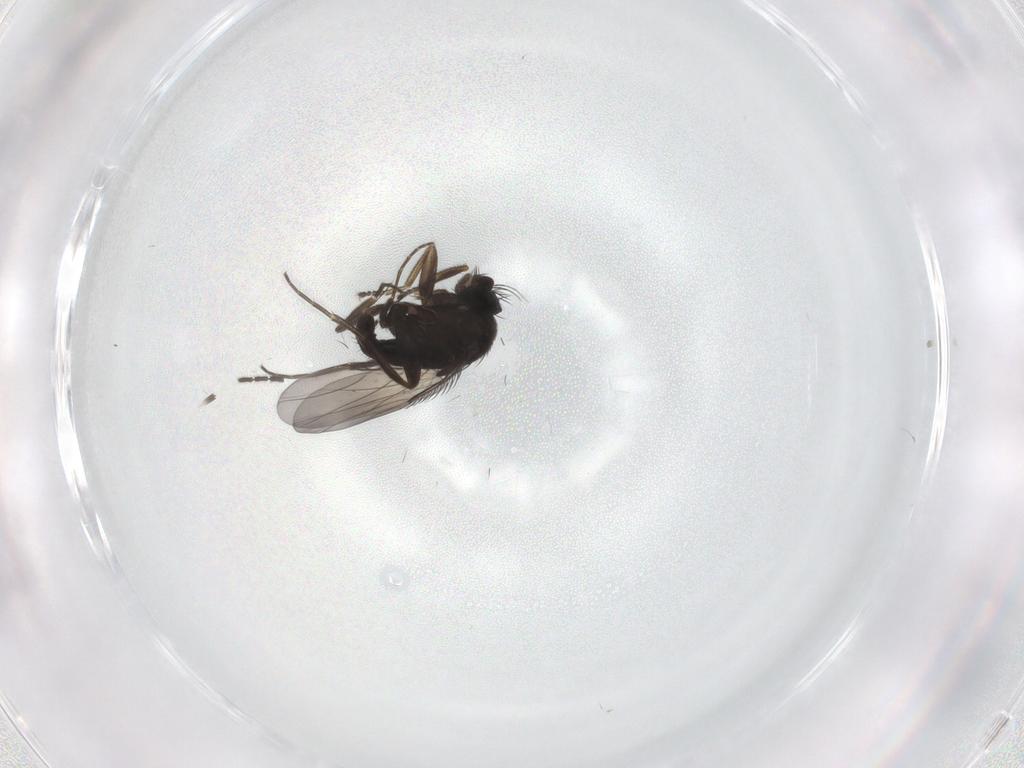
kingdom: Animalia
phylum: Arthropoda
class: Insecta
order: Diptera
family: Phoridae
